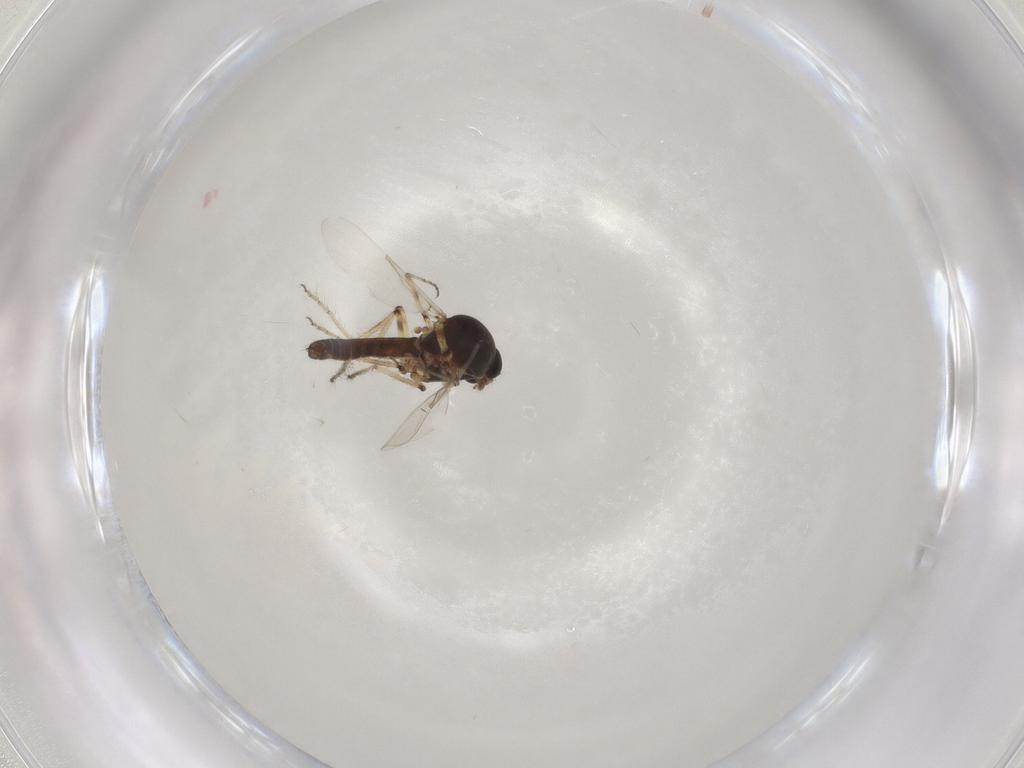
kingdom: Animalia
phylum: Arthropoda
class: Insecta
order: Diptera
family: Ceratopogonidae
